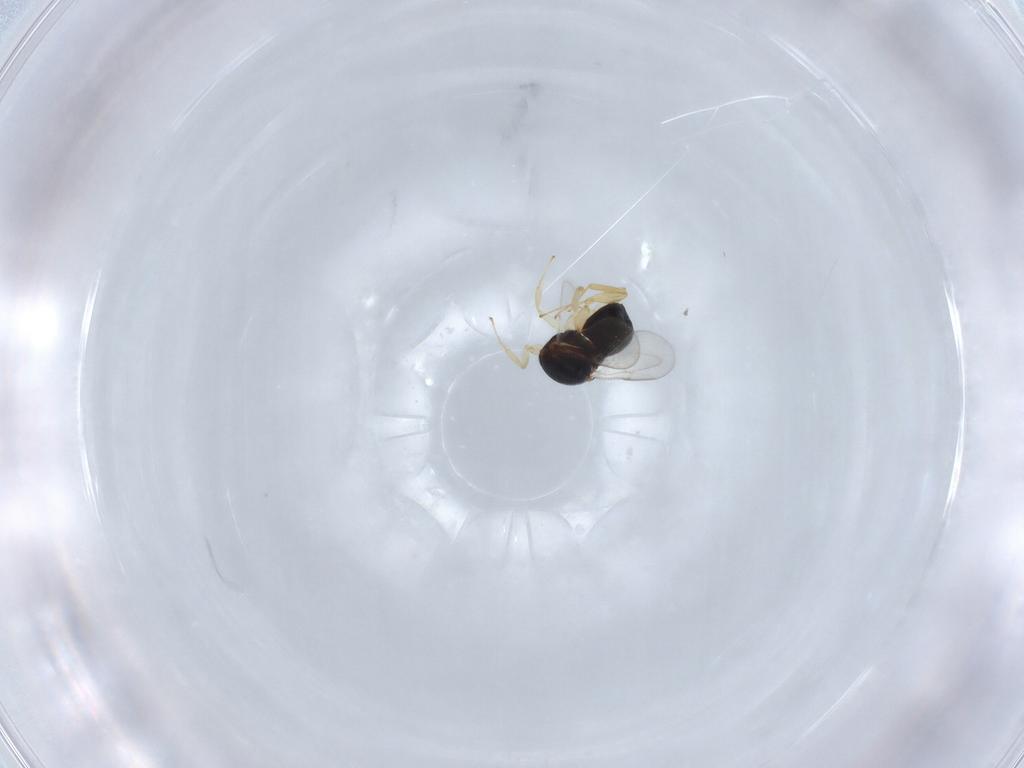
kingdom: Animalia
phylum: Arthropoda
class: Insecta
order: Hymenoptera
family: Scelionidae
